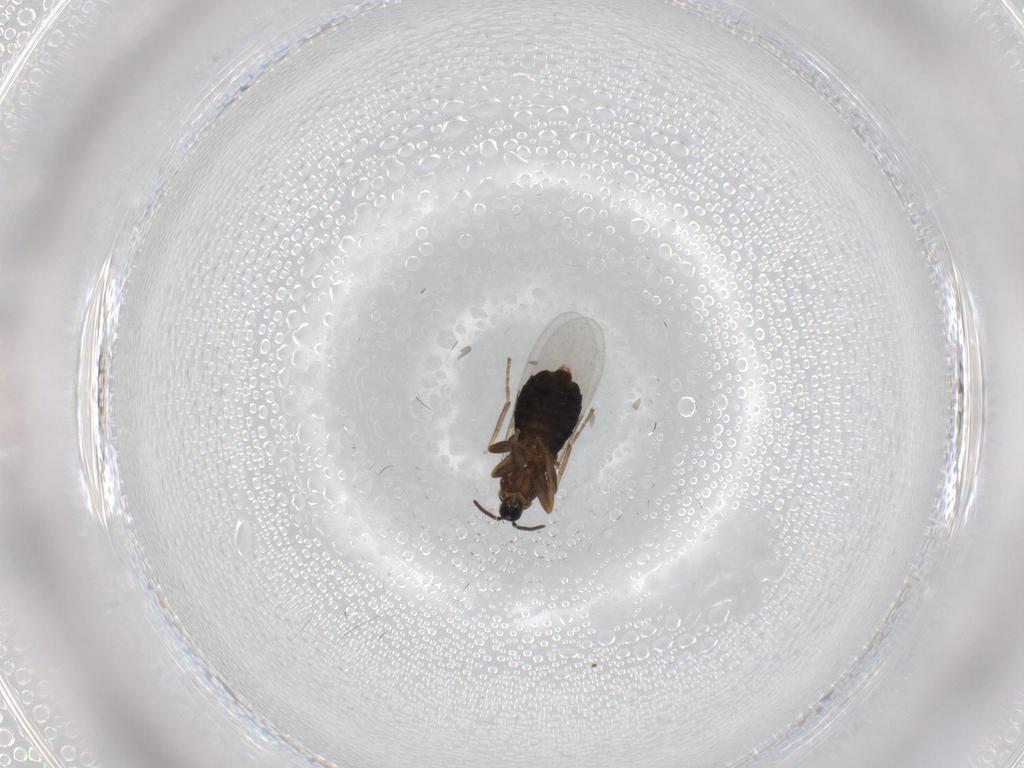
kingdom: Animalia
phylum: Arthropoda
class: Insecta
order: Diptera
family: Scatopsidae
